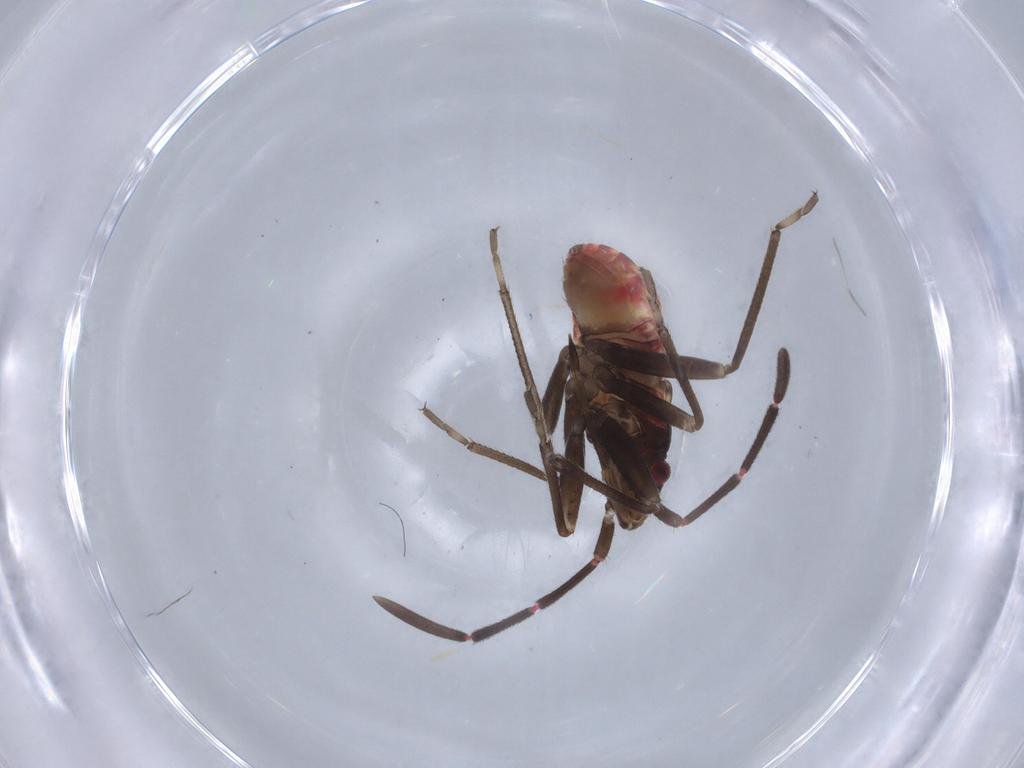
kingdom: Animalia
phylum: Arthropoda
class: Insecta
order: Hemiptera
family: Rhyparochromidae
